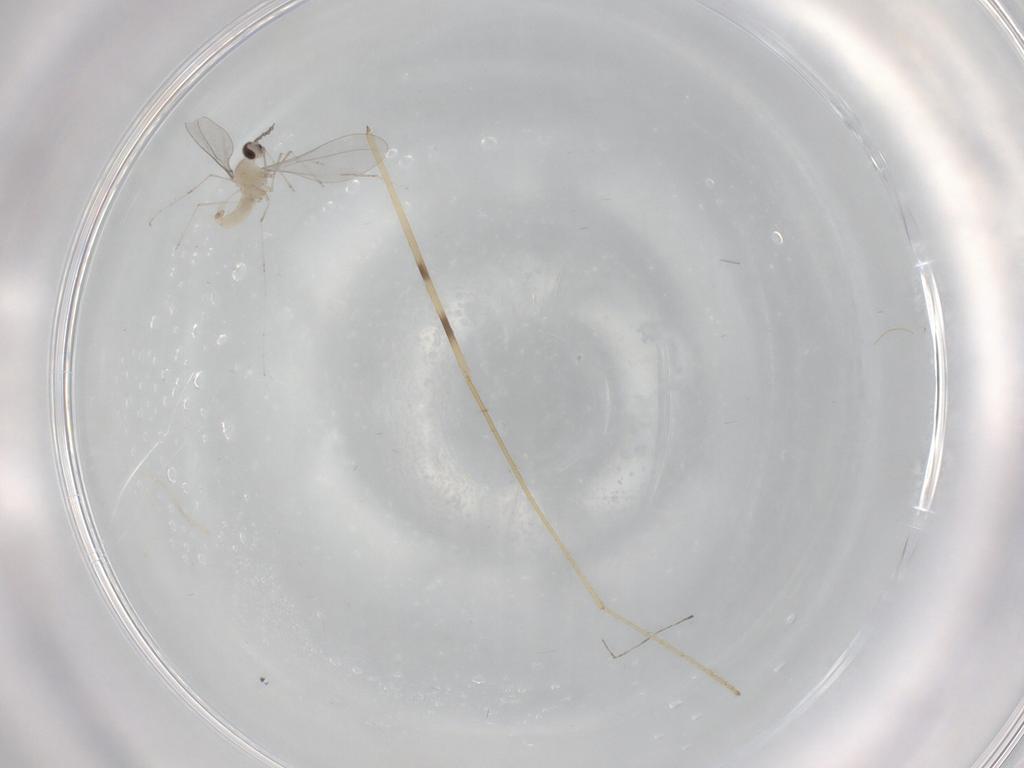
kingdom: Animalia
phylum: Arthropoda
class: Insecta
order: Diptera
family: Cecidomyiidae
